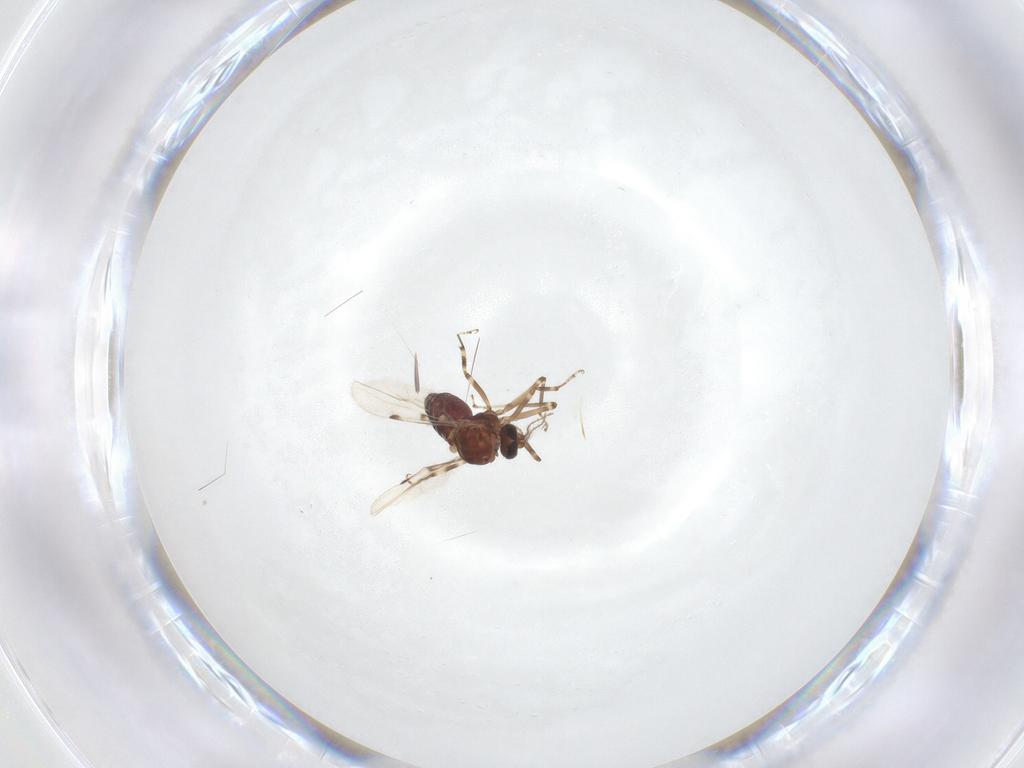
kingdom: Animalia
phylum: Arthropoda
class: Insecta
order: Diptera
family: Ceratopogonidae
